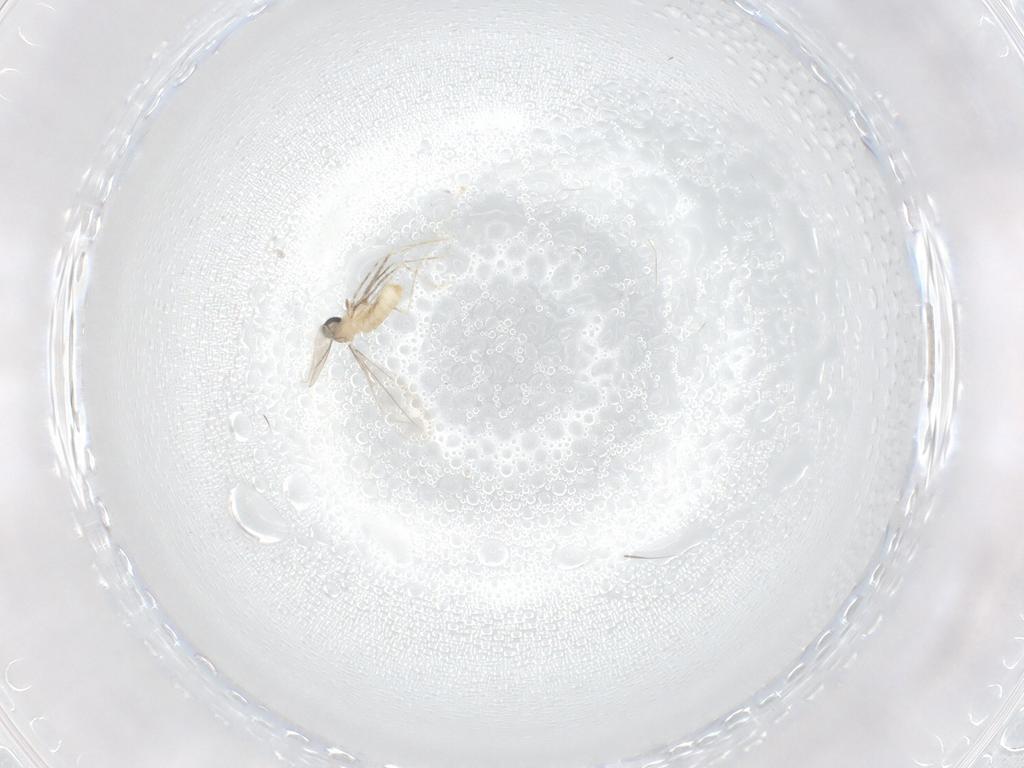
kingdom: Animalia
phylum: Arthropoda
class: Insecta
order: Diptera
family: Cecidomyiidae
